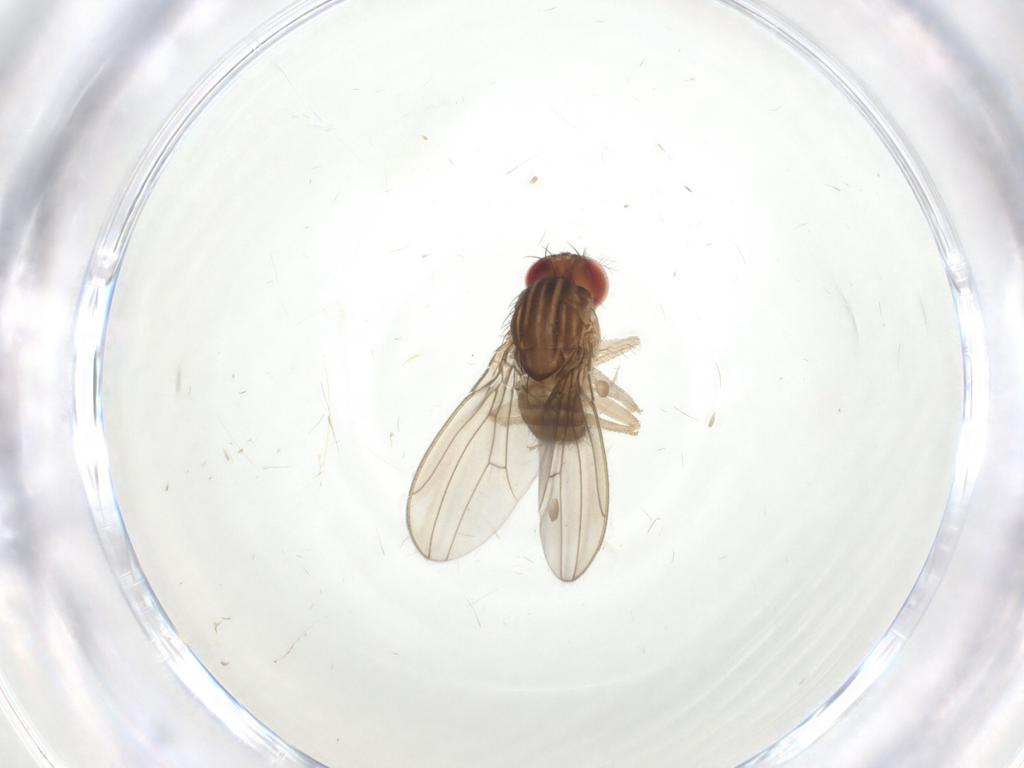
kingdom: Animalia
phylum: Arthropoda
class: Insecta
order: Diptera
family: Drosophilidae
